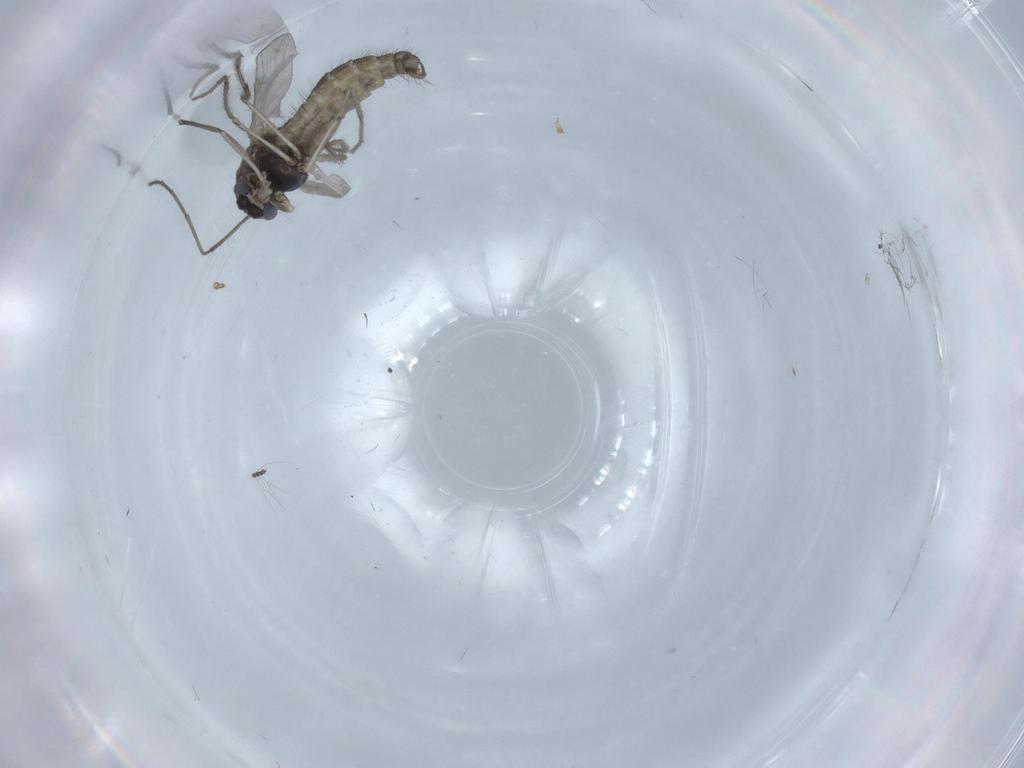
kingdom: Animalia
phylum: Arthropoda
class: Insecta
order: Diptera
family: Chironomidae
